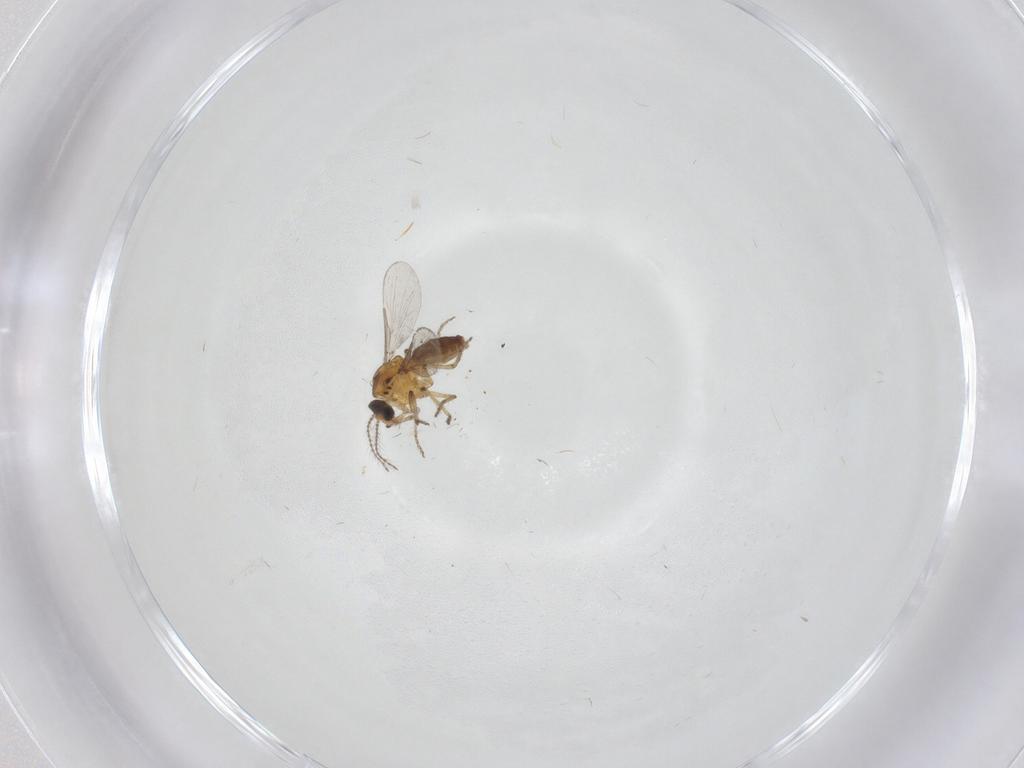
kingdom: Animalia
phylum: Arthropoda
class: Insecta
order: Diptera
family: Ceratopogonidae
